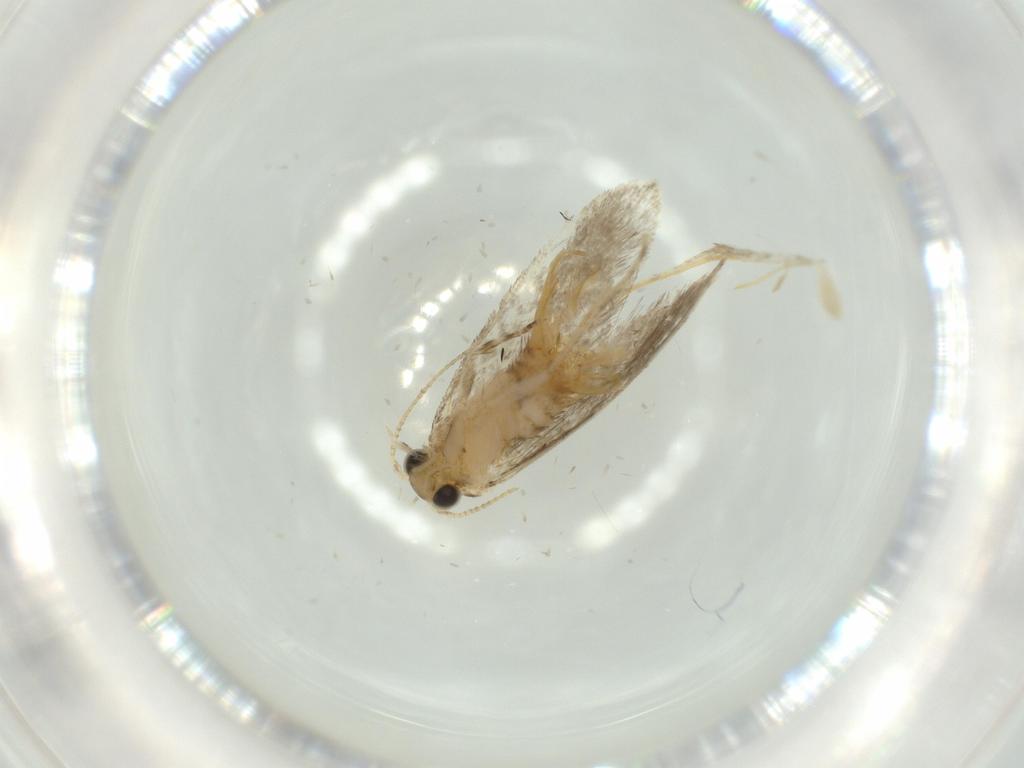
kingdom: Animalia
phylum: Arthropoda
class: Insecta
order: Lepidoptera
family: Tineidae
